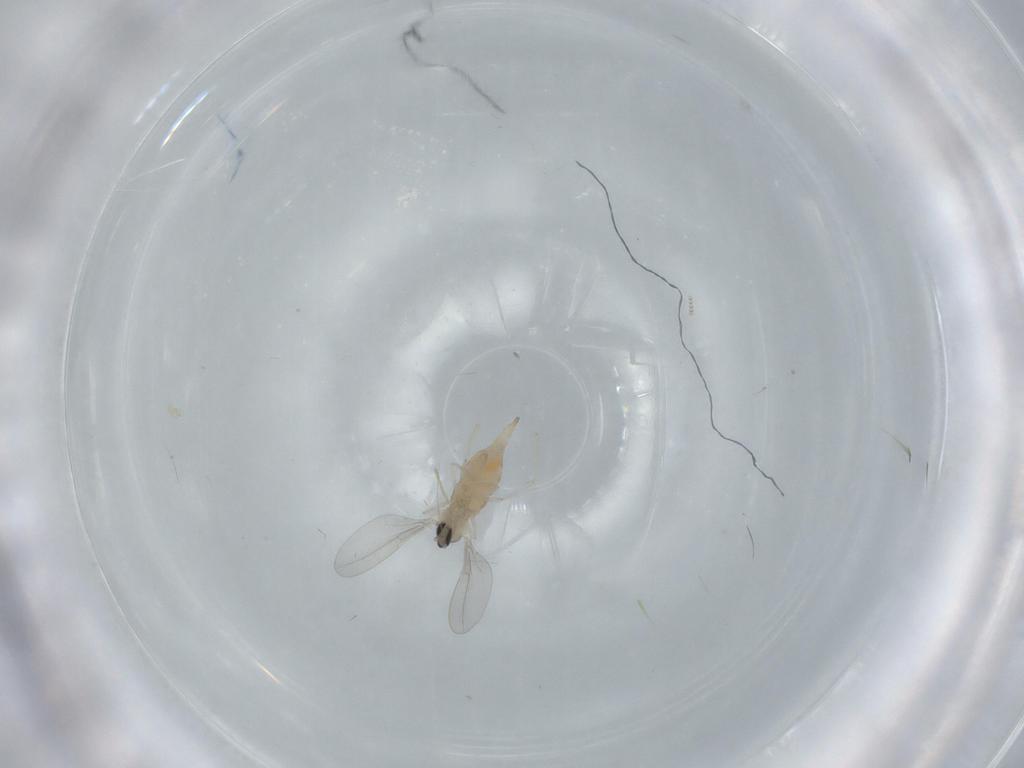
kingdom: Animalia
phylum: Arthropoda
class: Insecta
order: Diptera
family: Cecidomyiidae
